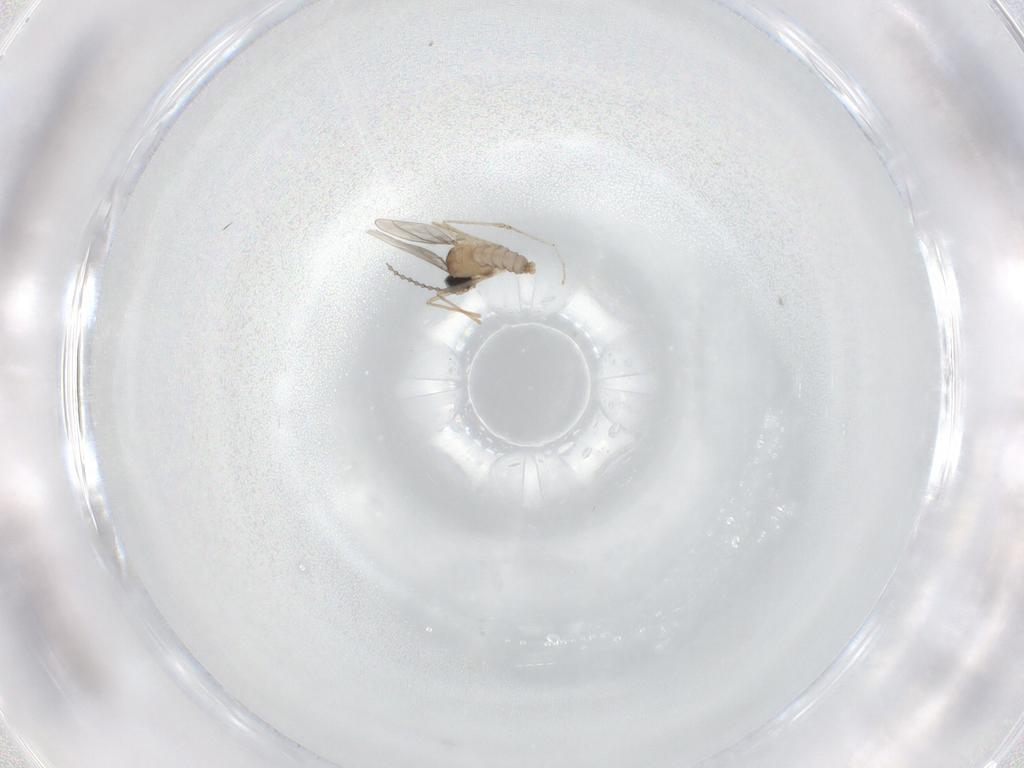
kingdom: Animalia
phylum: Arthropoda
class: Insecta
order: Diptera
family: Cecidomyiidae
